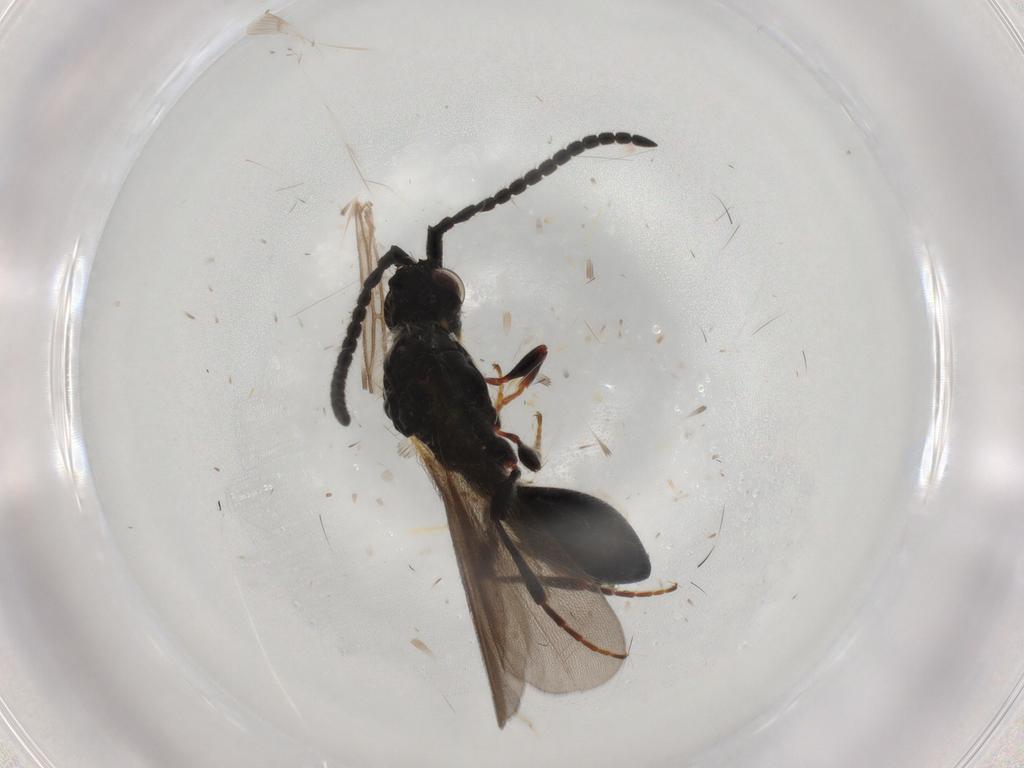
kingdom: Animalia
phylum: Arthropoda
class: Insecta
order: Hymenoptera
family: Diapriidae
